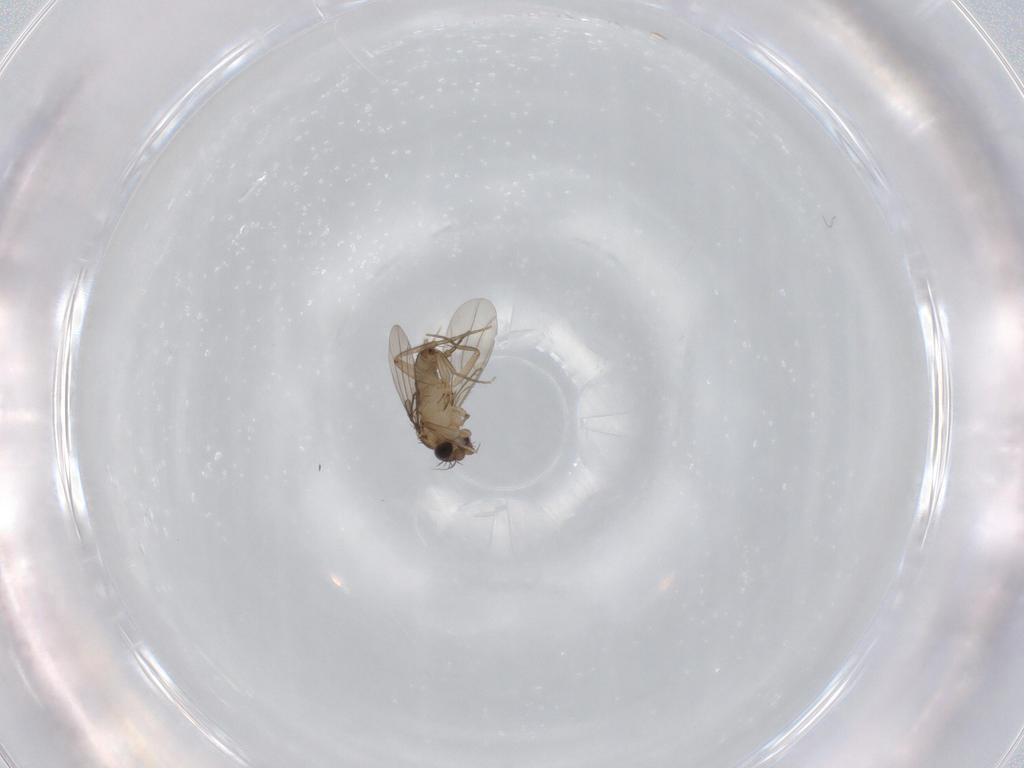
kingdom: Animalia
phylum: Arthropoda
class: Insecta
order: Diptera
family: Phoridae
